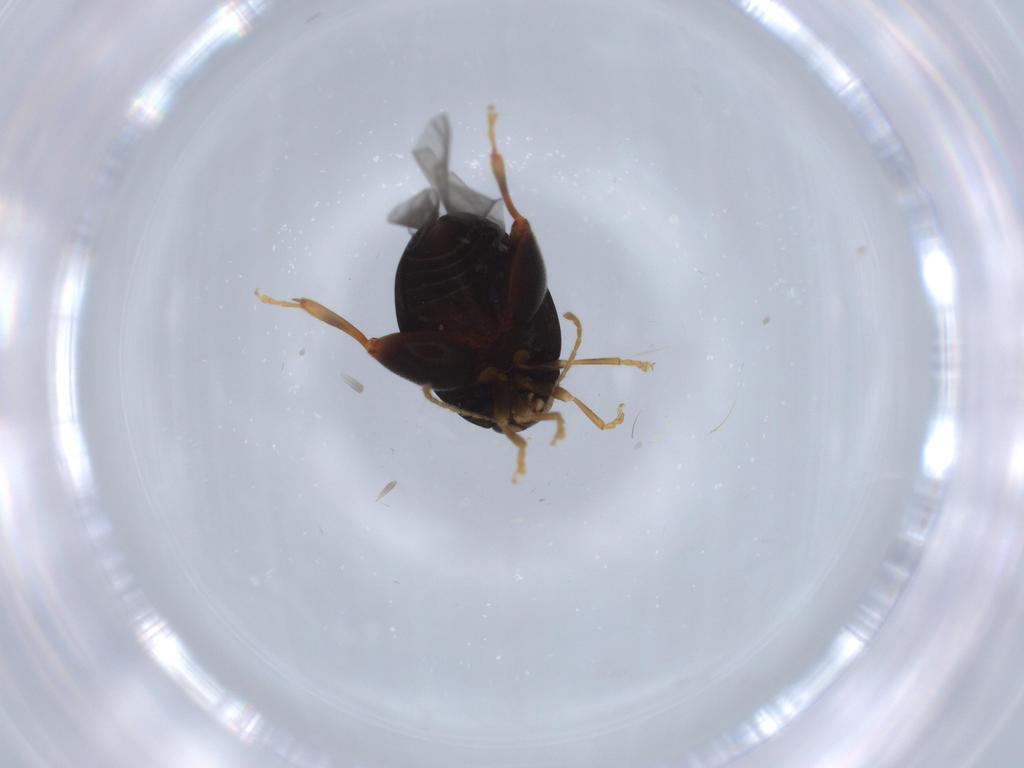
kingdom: Animalia
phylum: Arthropoda
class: Insecta
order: Coleoptera
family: Chrysomelidae
